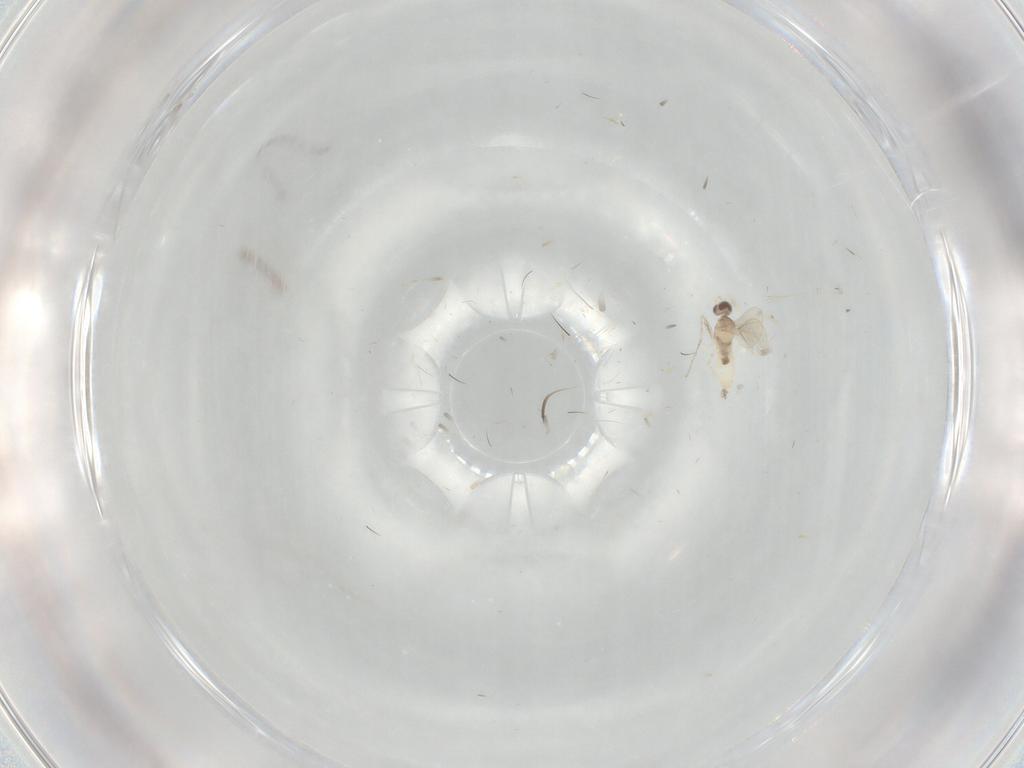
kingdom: Animalia
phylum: Arthropoda
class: Insecta
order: Diptera
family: Cecidomyiidae
